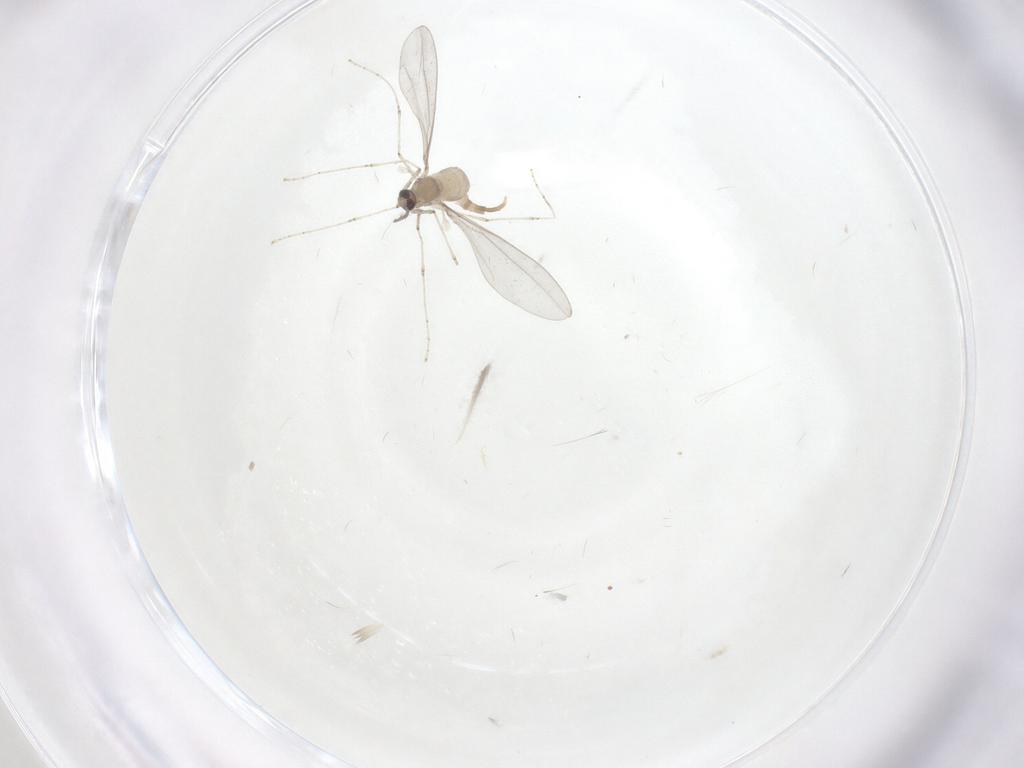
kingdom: Animalia
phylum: Arthropoda
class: Insecta
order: Diptera
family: Cecidomyiidae
